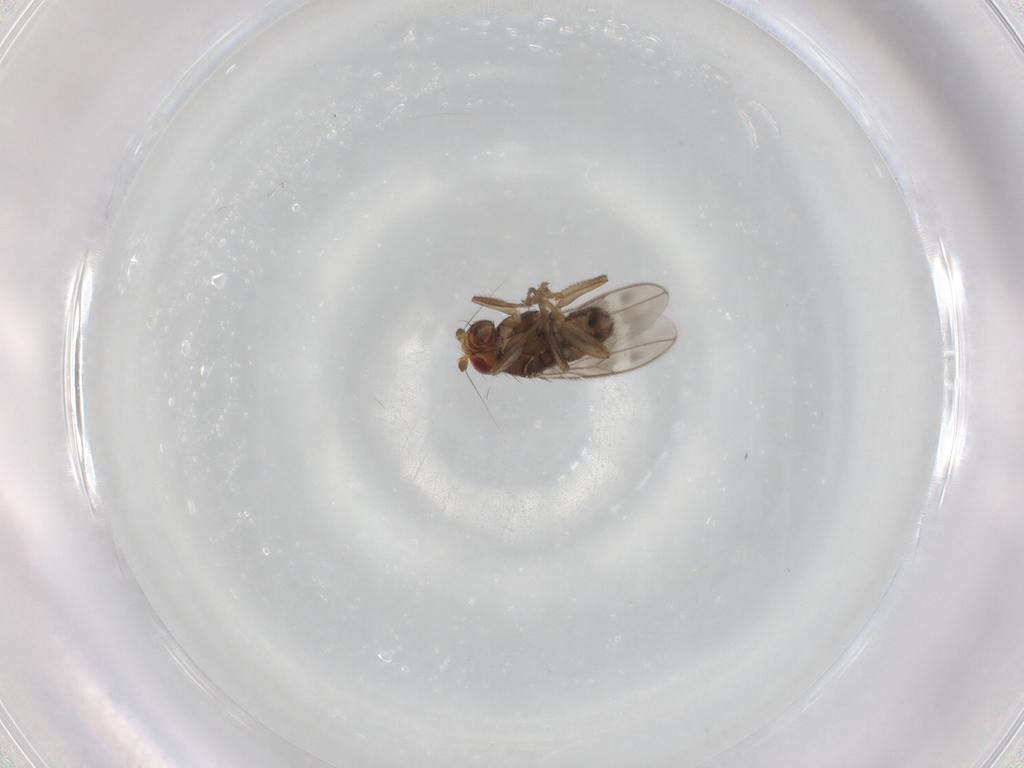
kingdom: Animalia
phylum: Arthropoda
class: Insecta
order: Diptera
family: Sphaeroceridae
